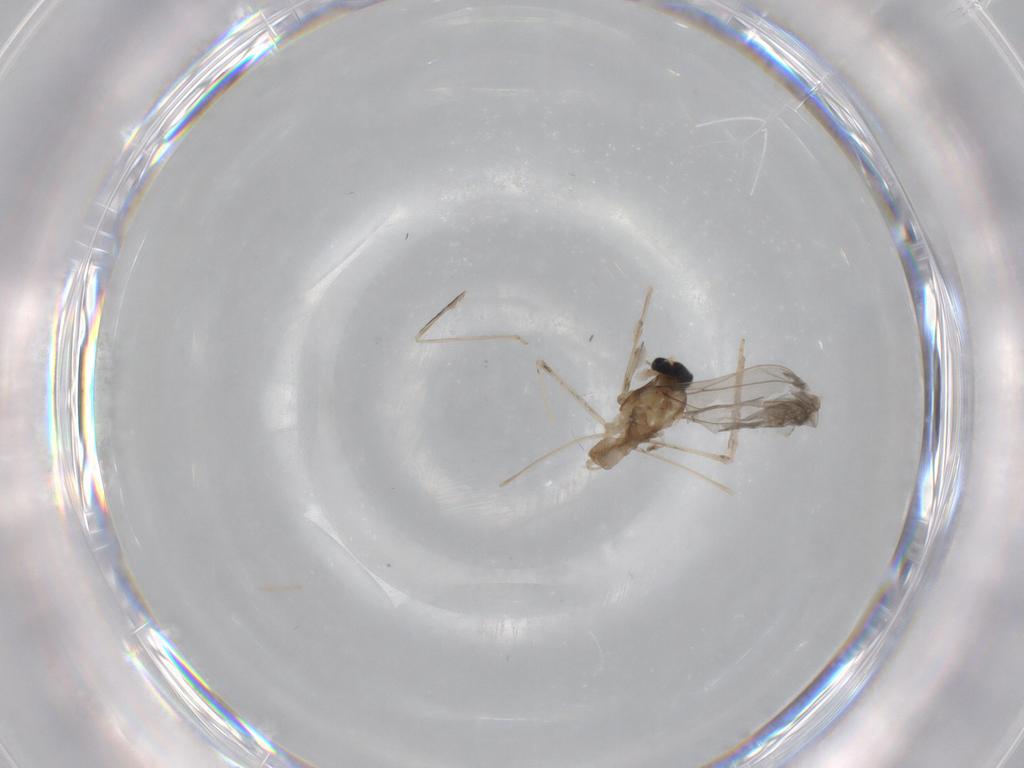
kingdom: Animalia
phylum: Arthropoda
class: Insecta
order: Diptera
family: Cecidomyiidae
